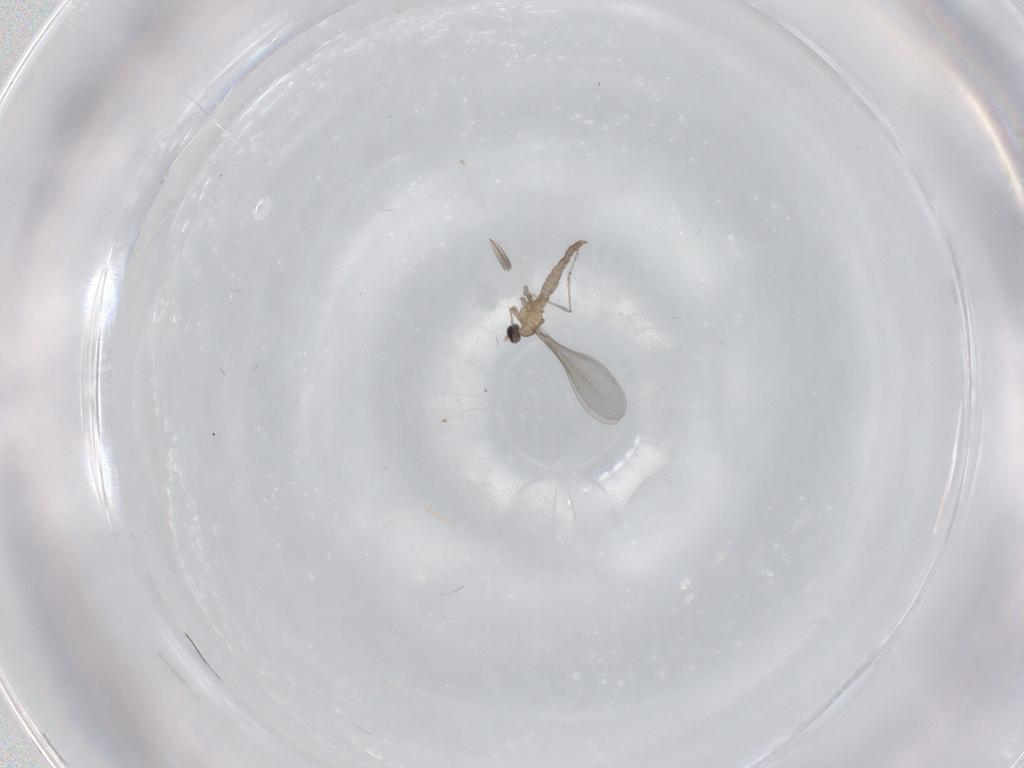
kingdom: Animalia
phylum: Arthropoda
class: Insecta
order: Diptera
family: Cecidomyiidae
